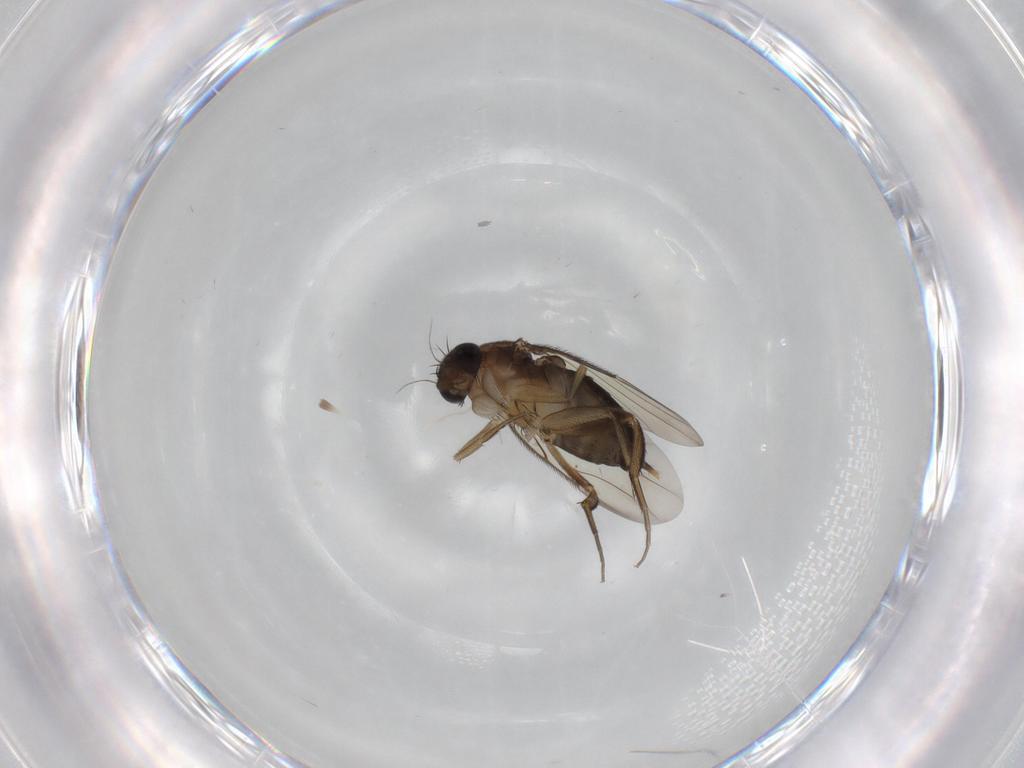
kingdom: Animalia
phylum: Arthropoda
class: Insecta
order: Diptera
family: Phoridae
